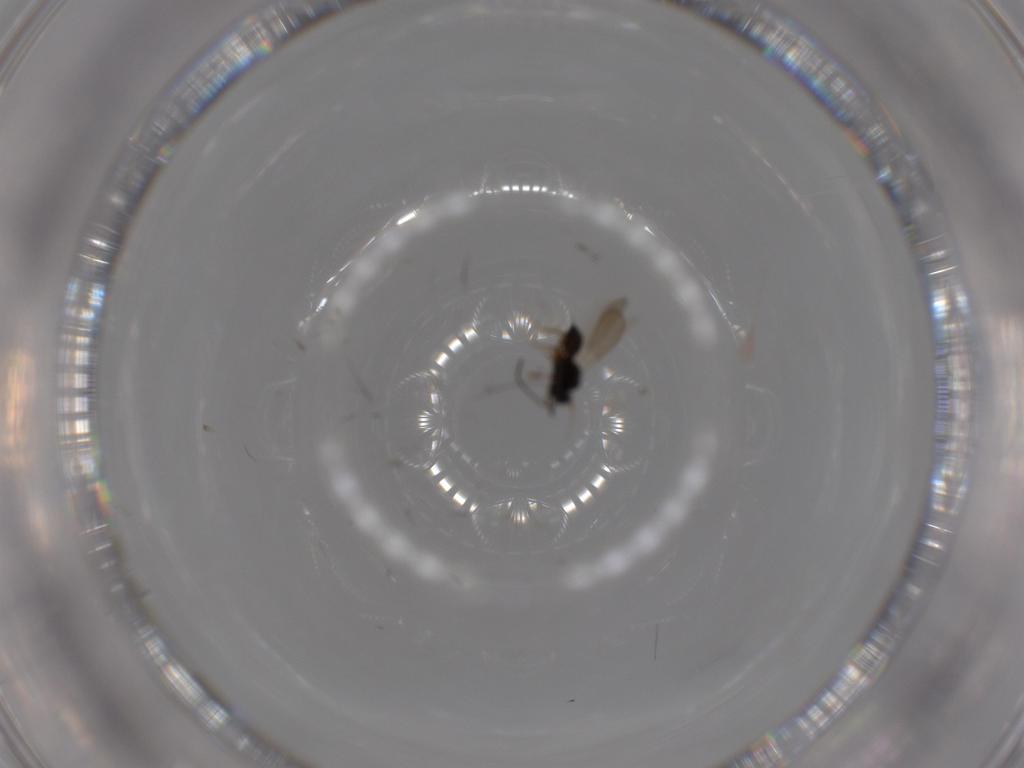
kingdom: Animalia
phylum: Arthropoda
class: Insecta
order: Hymenoptera
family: Scelionidae
